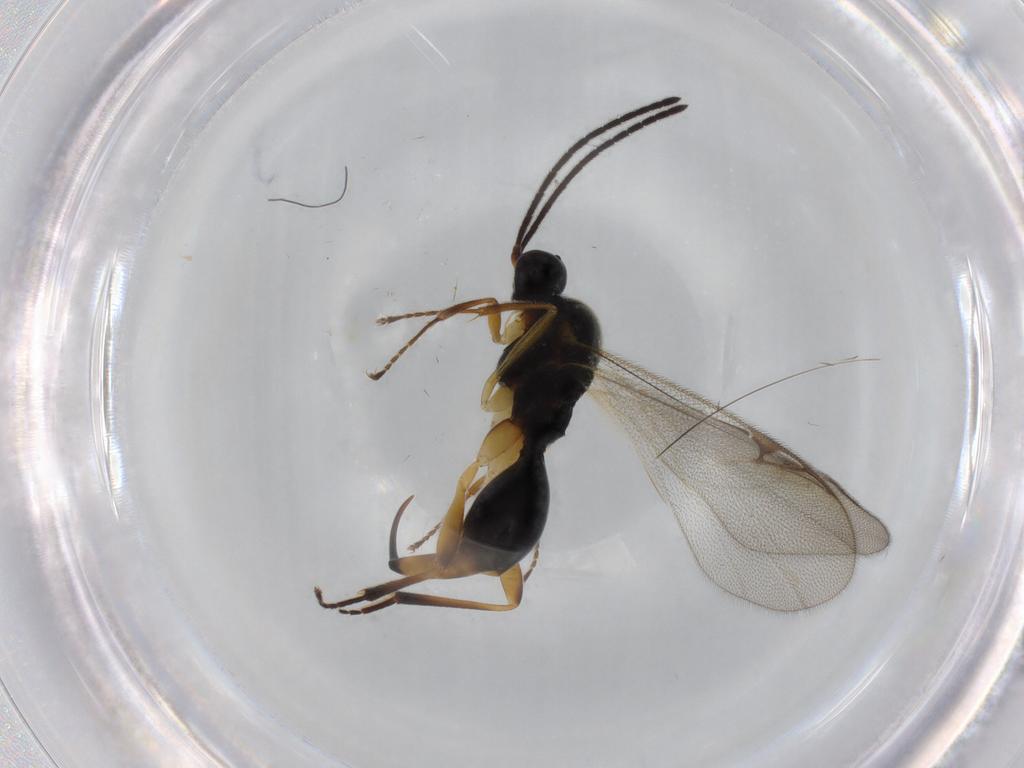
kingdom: Animalia
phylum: Arthropoda
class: Insecta
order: Hymenoptera
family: Proctotrupidae
